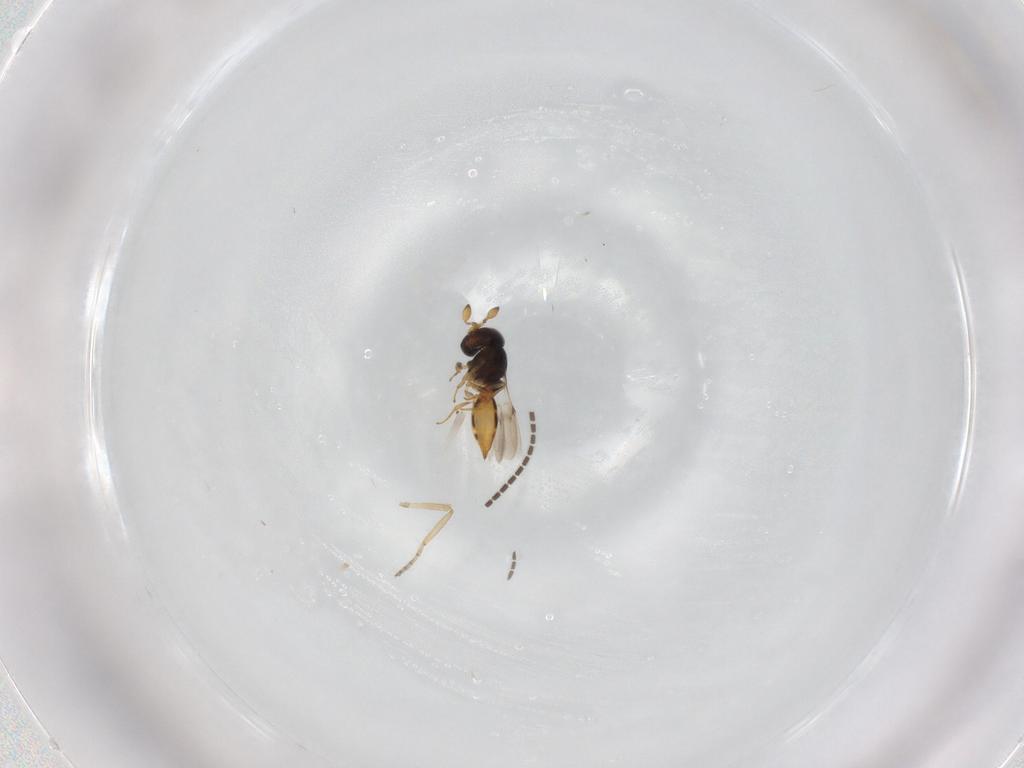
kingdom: Animalia
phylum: Arthropoda
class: Insecta
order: Hymenoptera
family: Scelionidae
